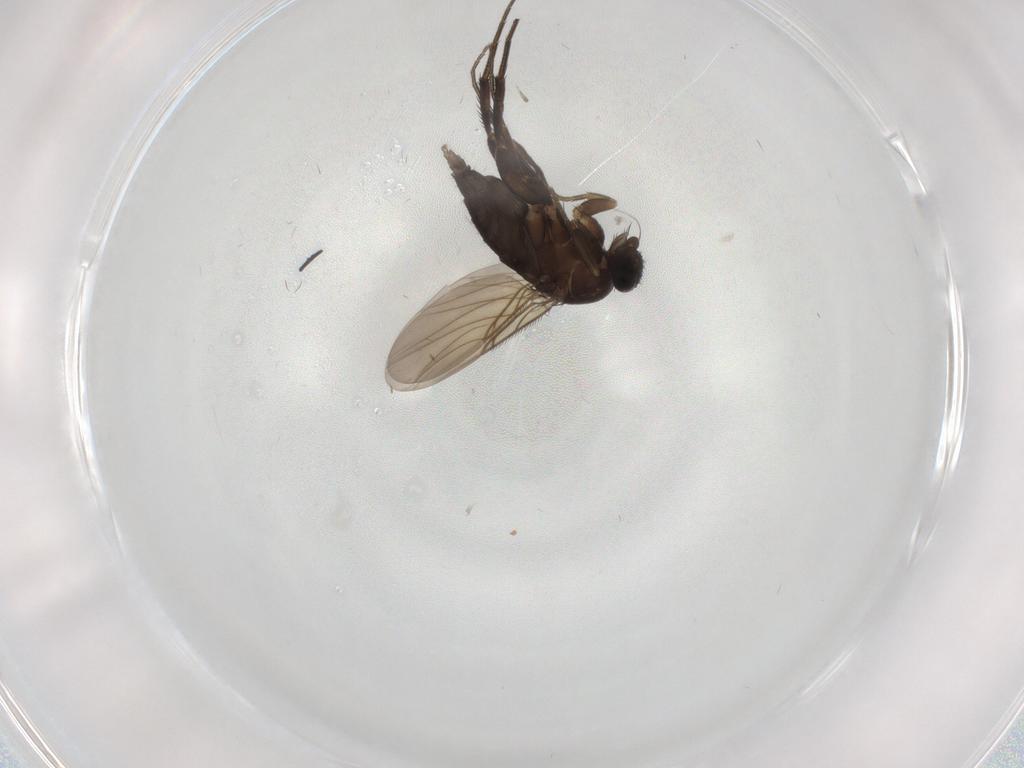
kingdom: Animalia
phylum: Arthropoda
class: Insecta
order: Diptera
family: Phoridae
